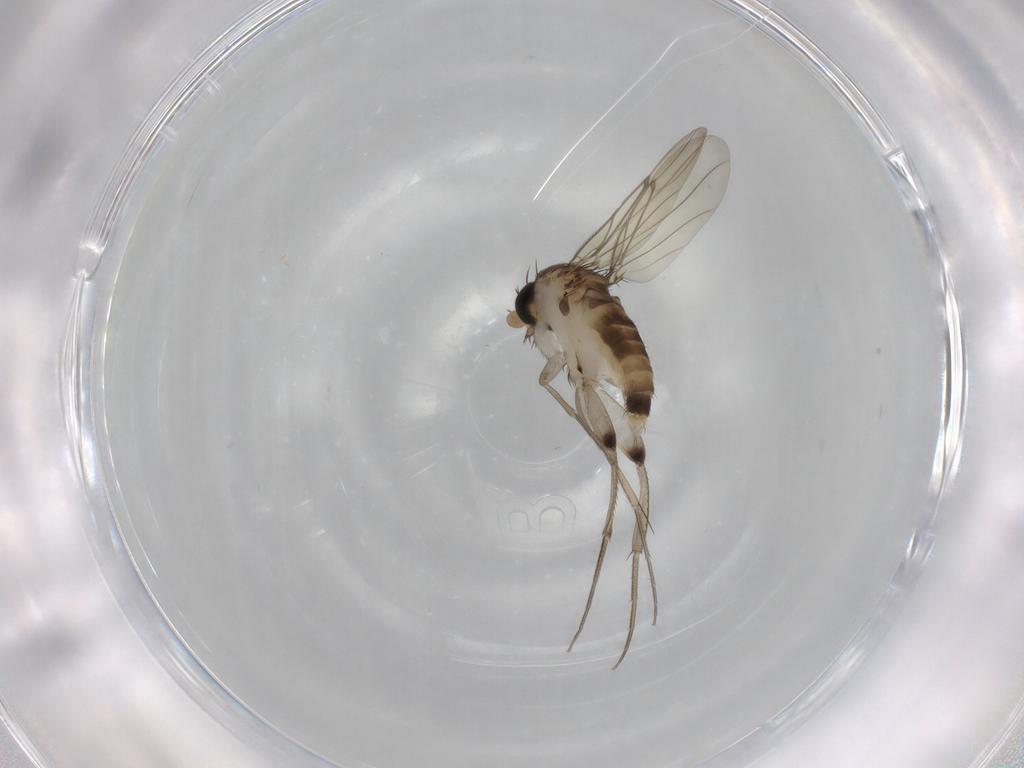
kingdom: Animalia
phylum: Arthropoda
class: Insecta
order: Diptera
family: Phoridae
